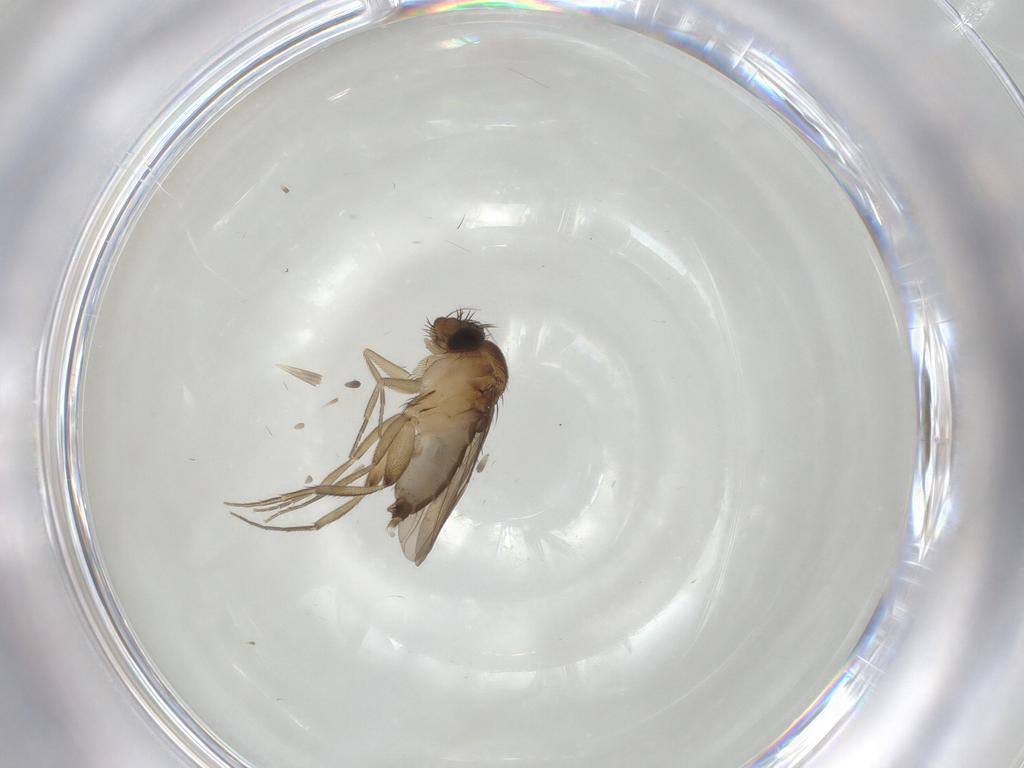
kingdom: Animalia
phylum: Arthropoda
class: Insecta
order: Diptera
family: Phoridae
